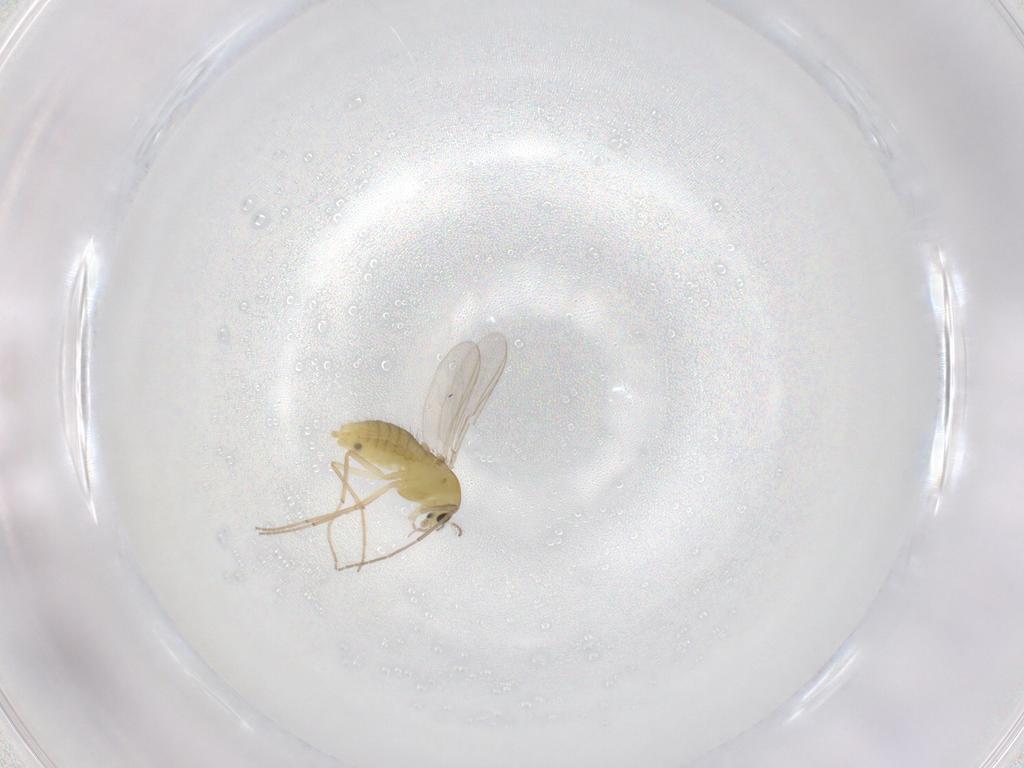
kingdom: Animalia
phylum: Arthropoda
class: Insecta
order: Diptera
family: Chironomidae
